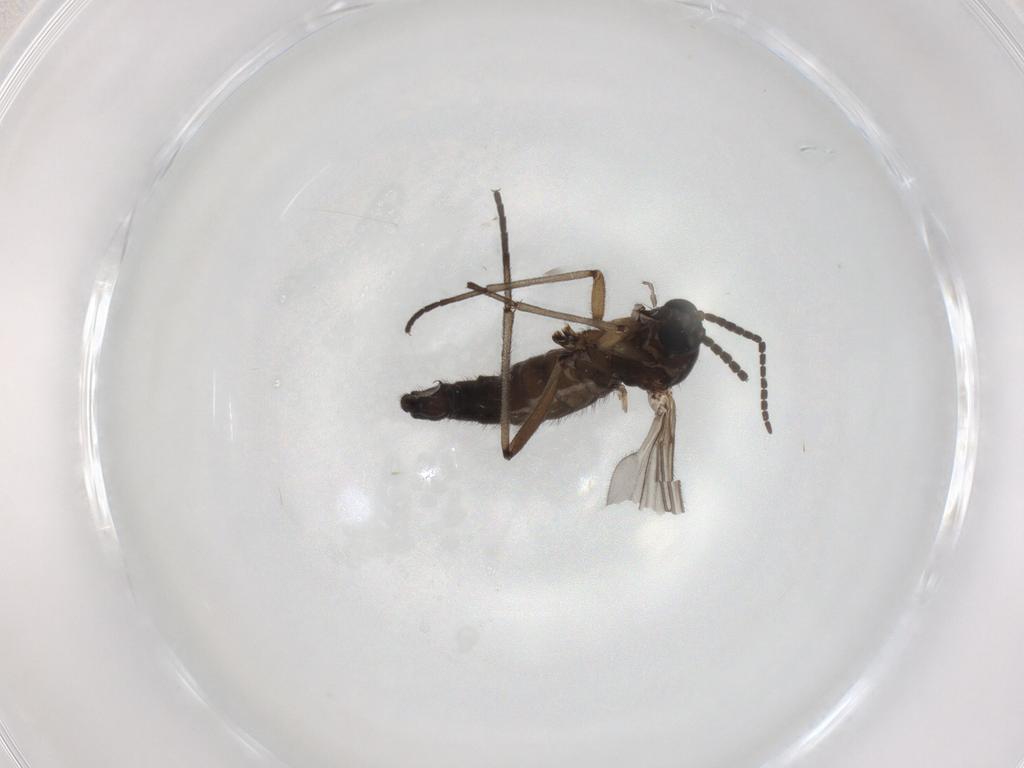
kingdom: Animalia
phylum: Arthropoda
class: Insecta
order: Diptera
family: Sciaridae
